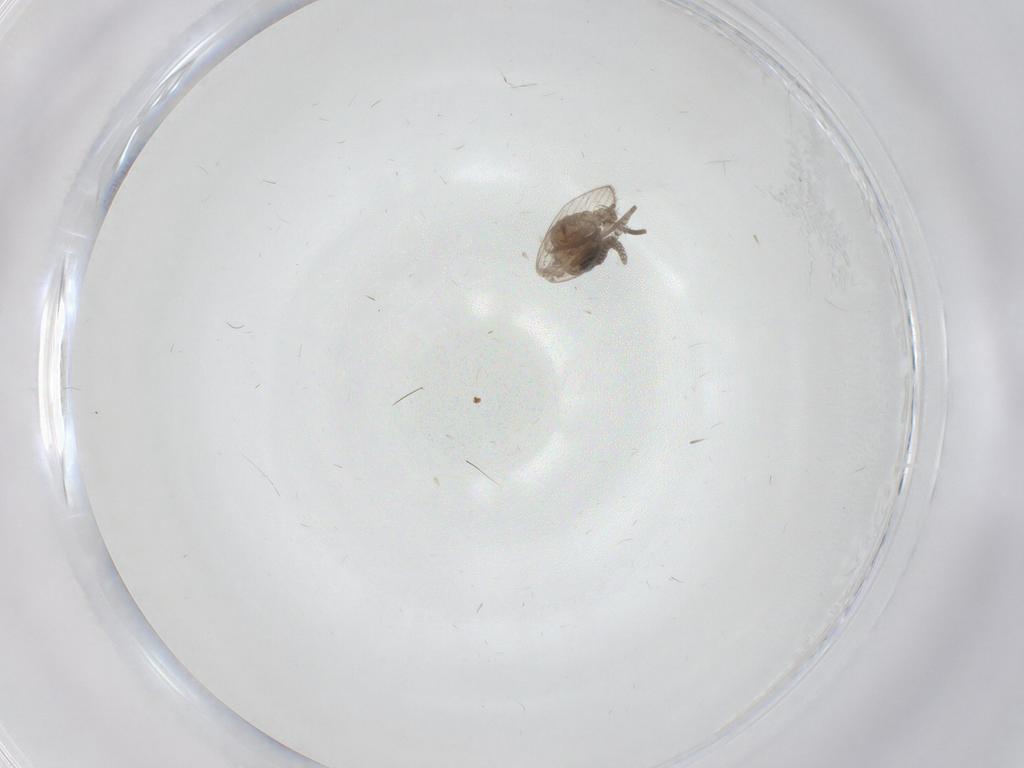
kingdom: Animalia
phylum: Arthropoda
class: Insecta
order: Diptera
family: Psychodidae
